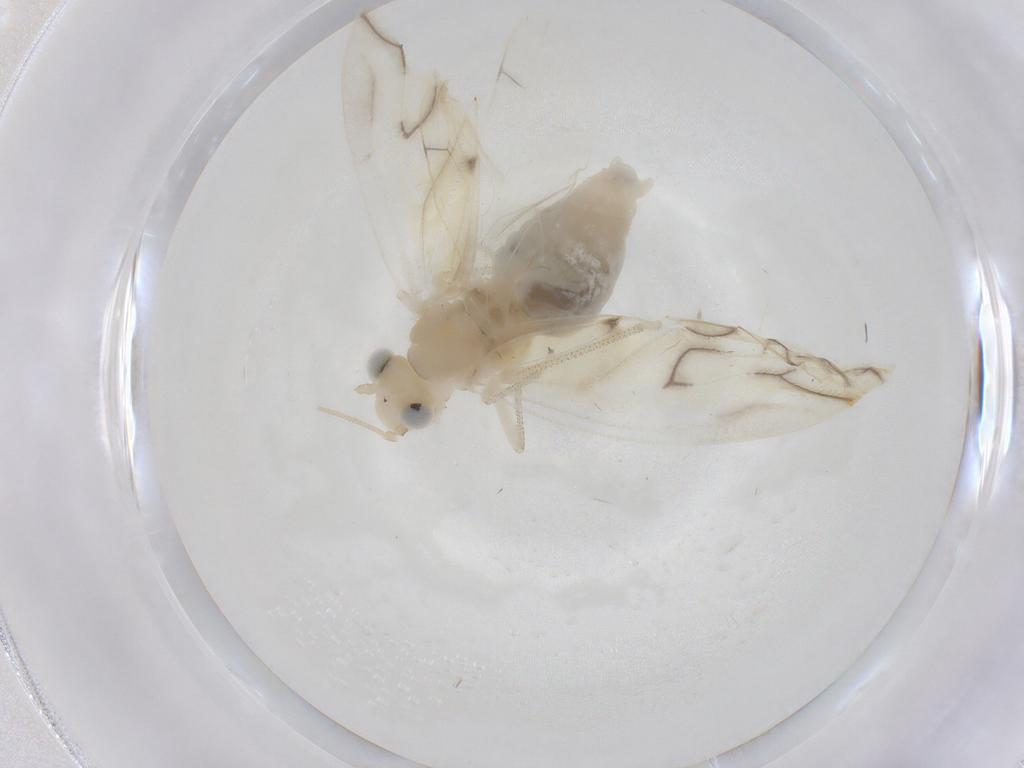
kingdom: Animalia
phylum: Arthropoda
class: Insecta
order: Psocodea
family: Caeciliusidae
